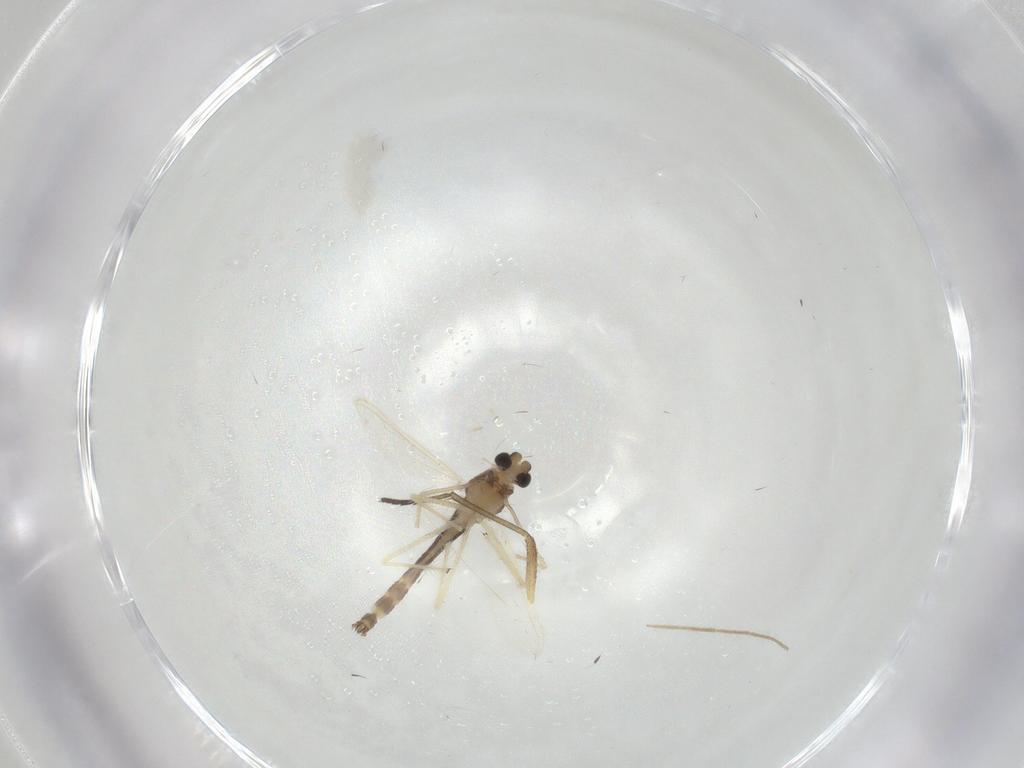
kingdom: Animalia
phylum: Arthropoda
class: Insecta
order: Diptera
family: Chironomidae
